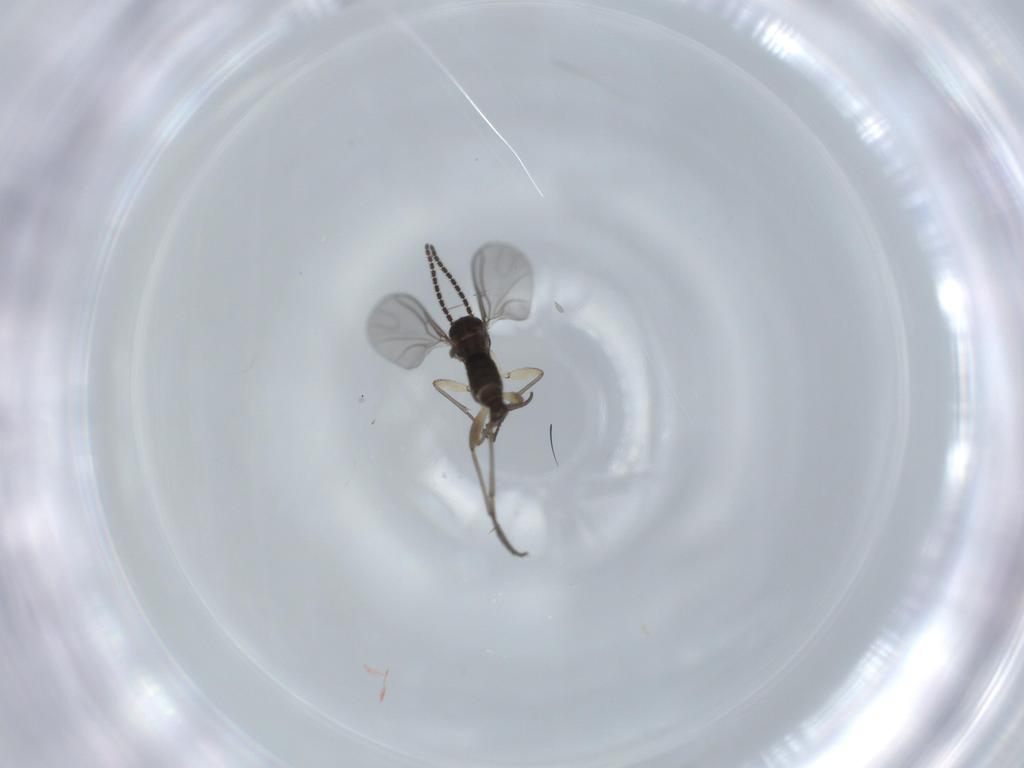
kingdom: Animalia
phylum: Arthropoda
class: Insecta
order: Diptera
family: Sciaridae
